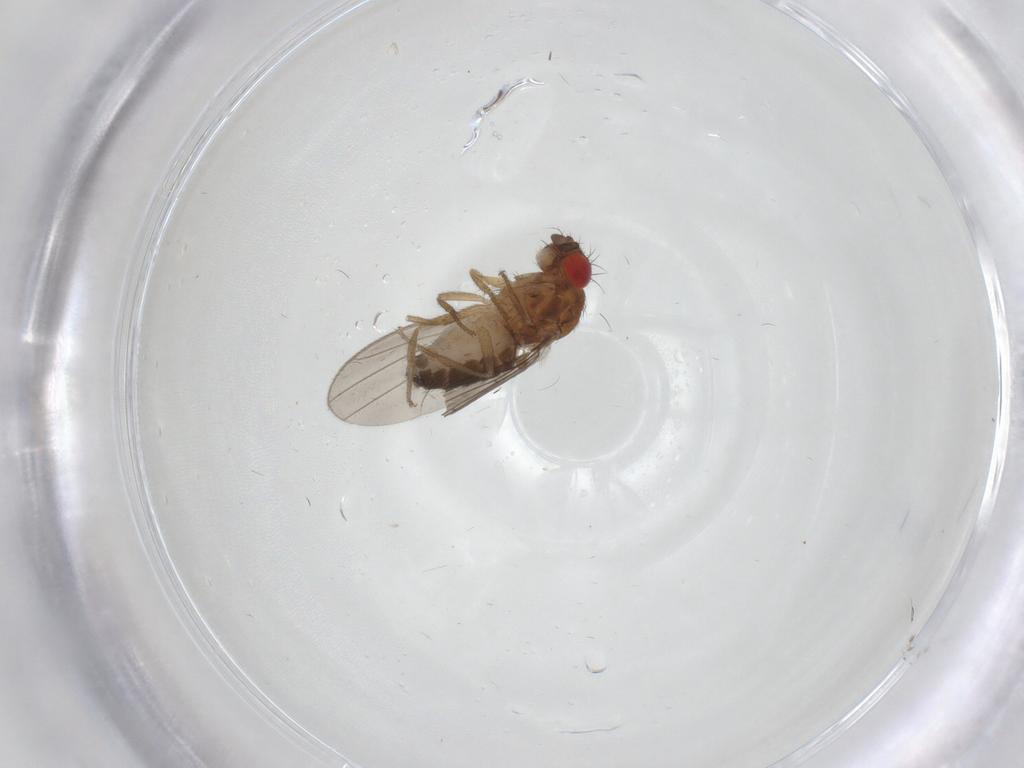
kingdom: Animalia
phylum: Arthropoda
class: Insecta
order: Diptera
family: Drosophilidae
